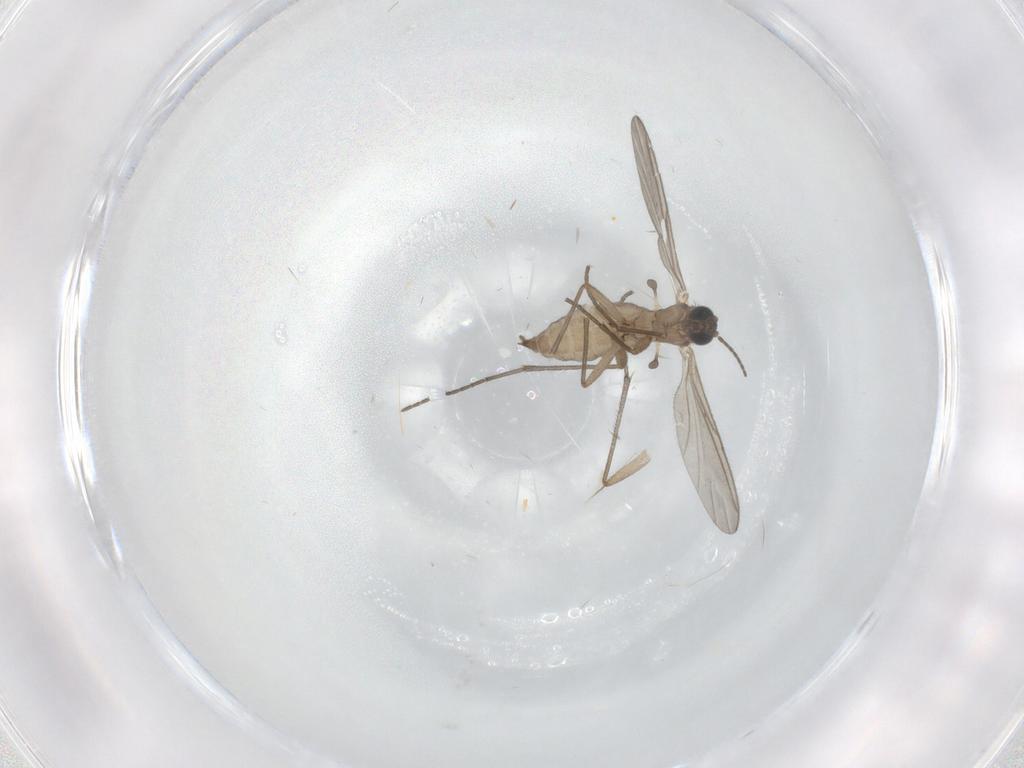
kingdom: Animalia
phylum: Arthropoda
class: Insecta
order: Diptera
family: Sciaridae
